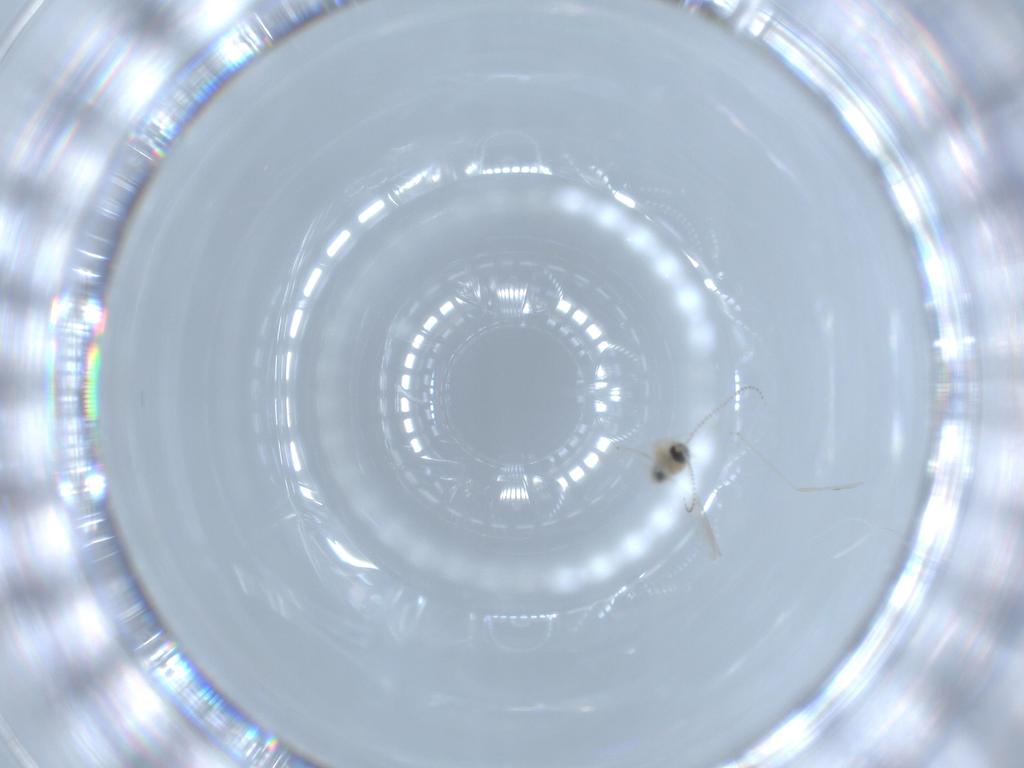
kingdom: Animalia
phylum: Arthropoda
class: Insecta
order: Diptera
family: Cecidomyiidae
